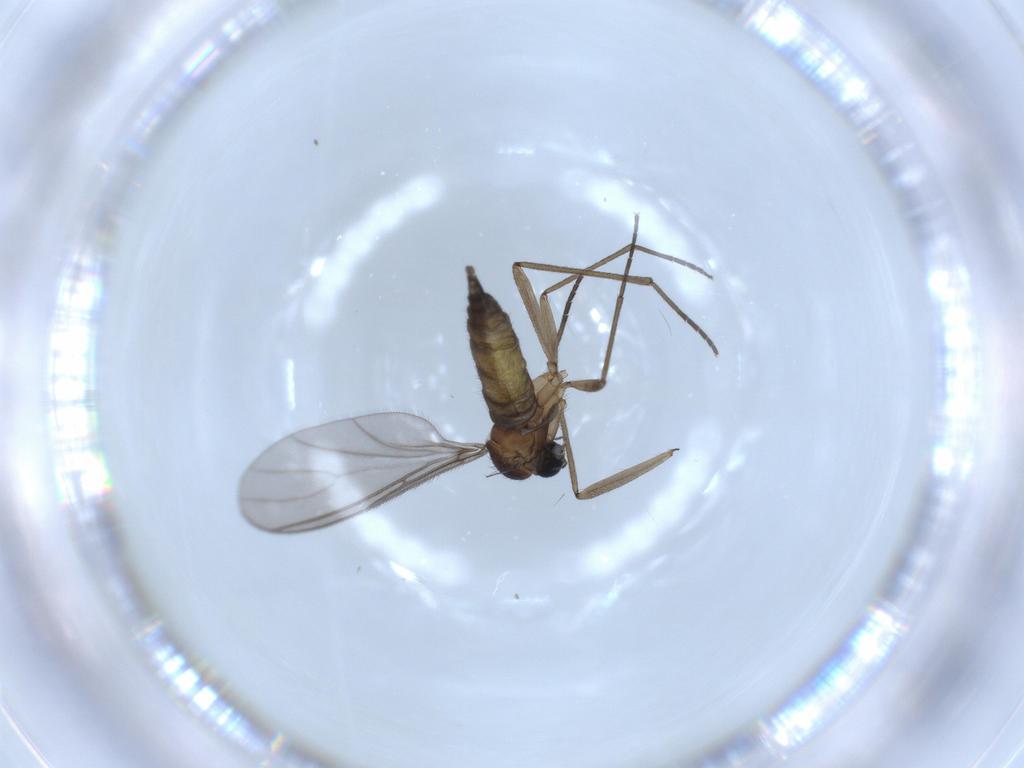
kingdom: Animalia
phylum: Arthropoda
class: Insecta
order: Diptera
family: Sciaridae
